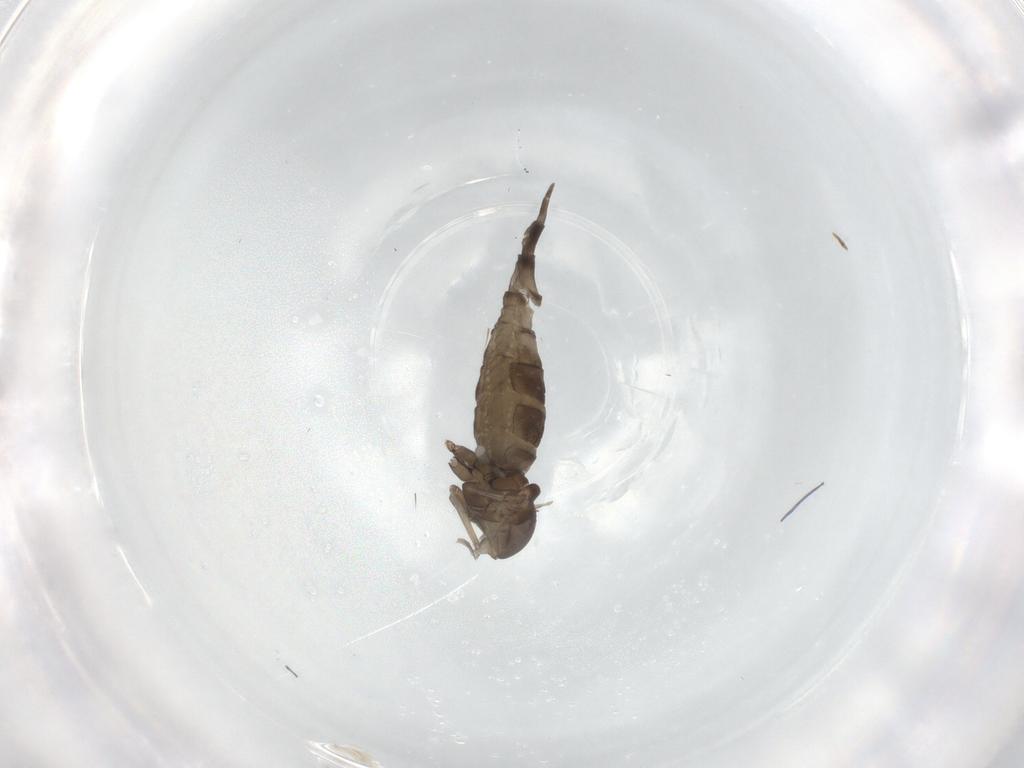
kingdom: Animalia
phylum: Arthropoda
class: Insecta
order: Diptera
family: Cecidomyiidae
